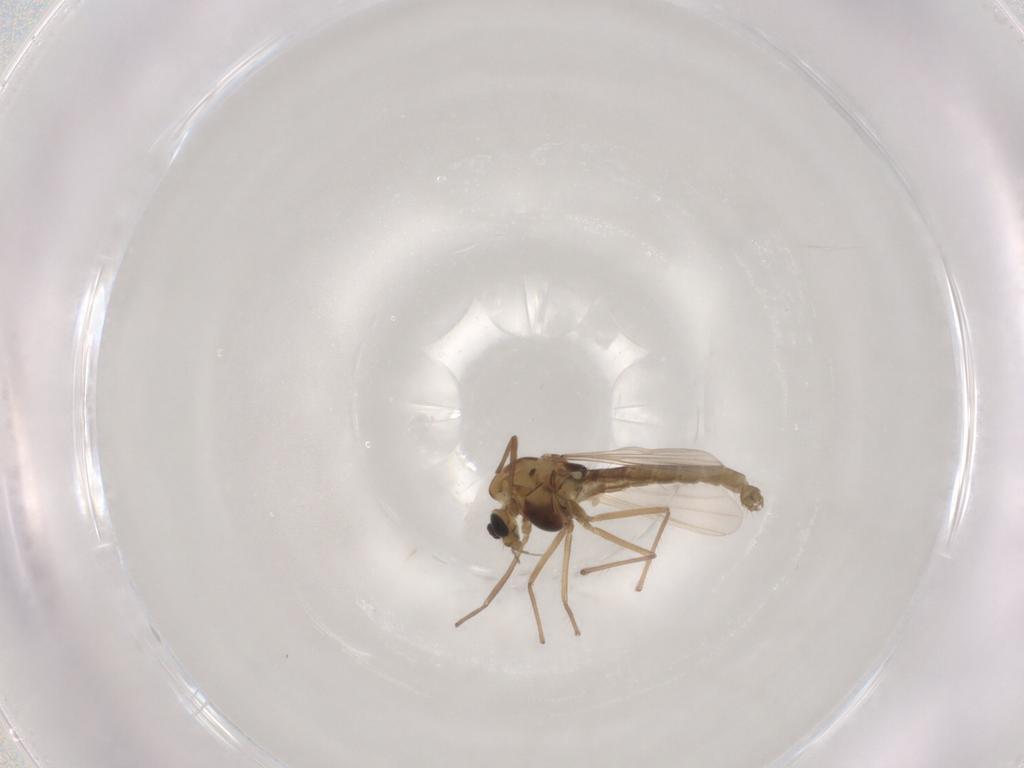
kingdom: Animalia
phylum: Arthropoda
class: Insecta
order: Diptera
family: Chironomidae
